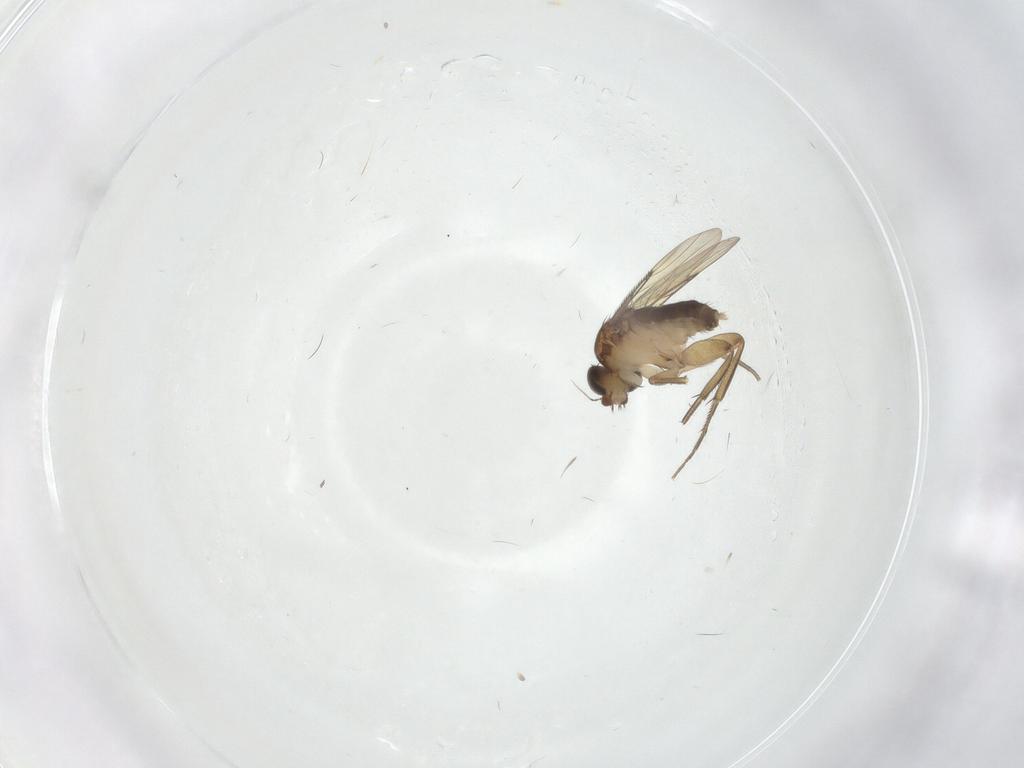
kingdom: Animalia
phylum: Arthropoda
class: Insecta
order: Diptera
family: Phoridae
